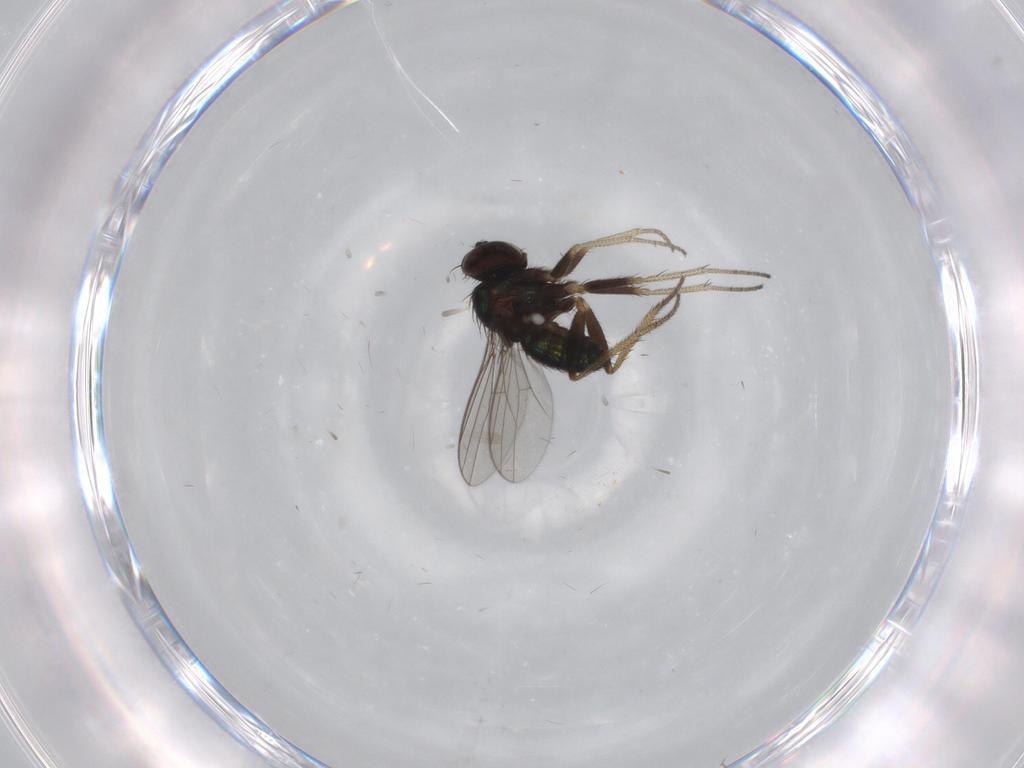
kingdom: Animalia
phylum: Arthropoda
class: Insecta
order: Diptera
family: Dolichopodidae
